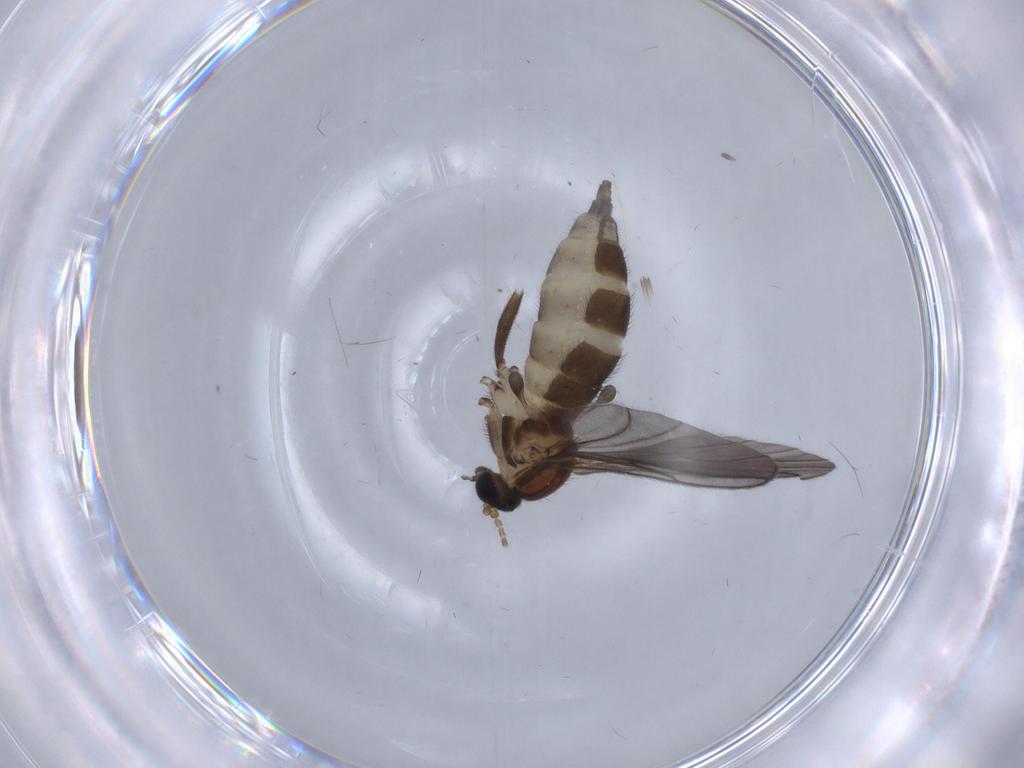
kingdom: Animalia
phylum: Arthropoda
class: Insecta
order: Diptera
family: Sciaridae
